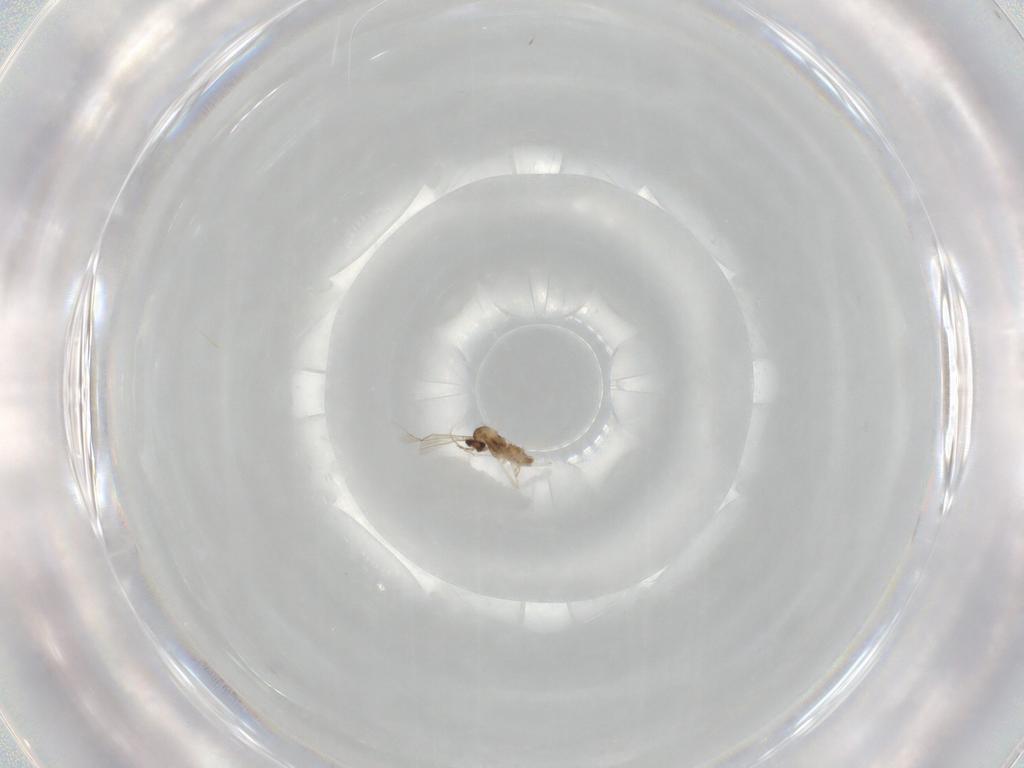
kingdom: Animalia
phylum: Arthropoda
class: Insecta
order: Diptera
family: Cecidomyiidae
